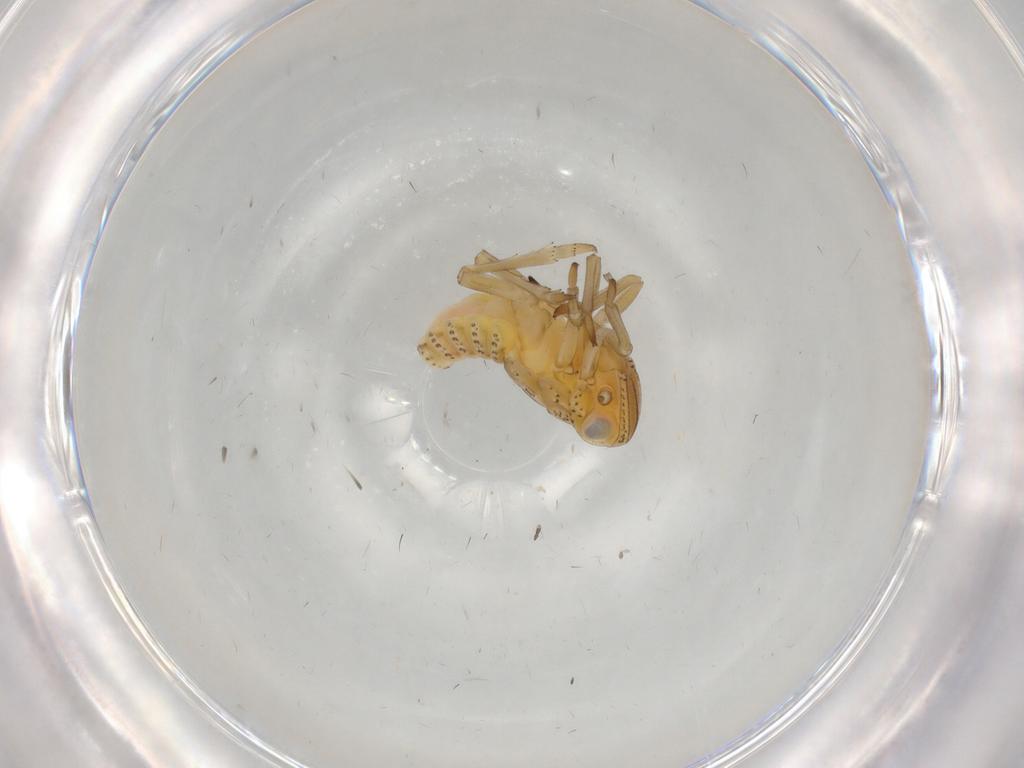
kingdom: Animalia
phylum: Arthropoda
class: Insecta
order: Hemiptera
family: Tropiduchidae
